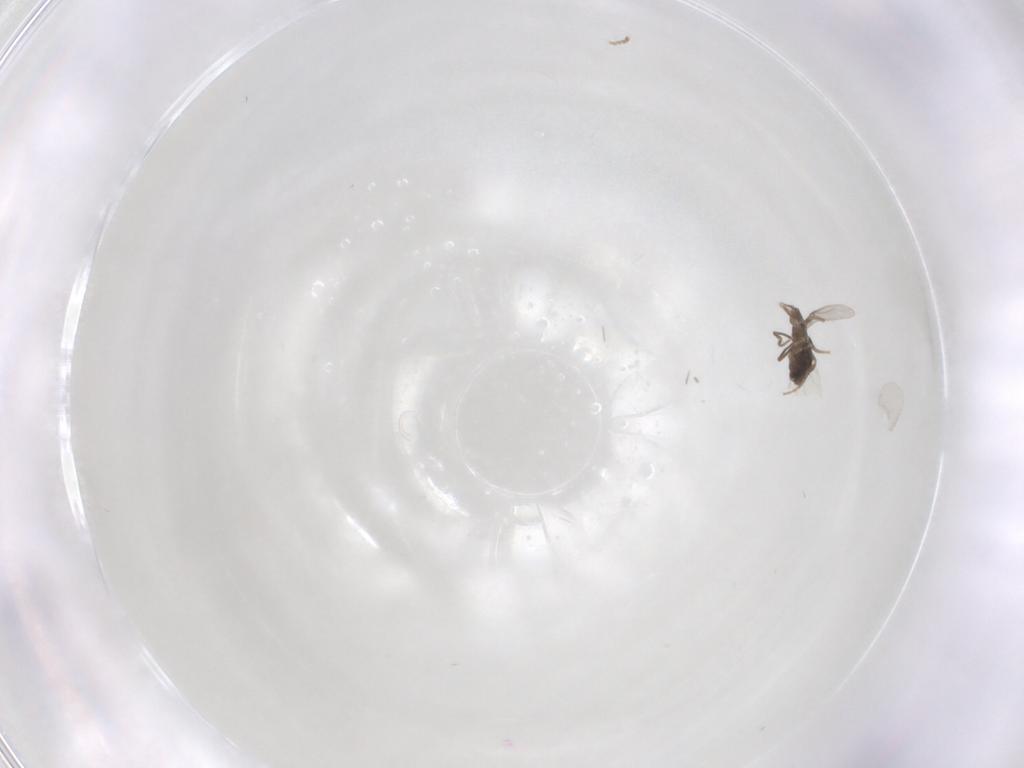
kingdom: Animalia
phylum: Arthropoda
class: Insecta
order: Diptera
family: Phoridae
